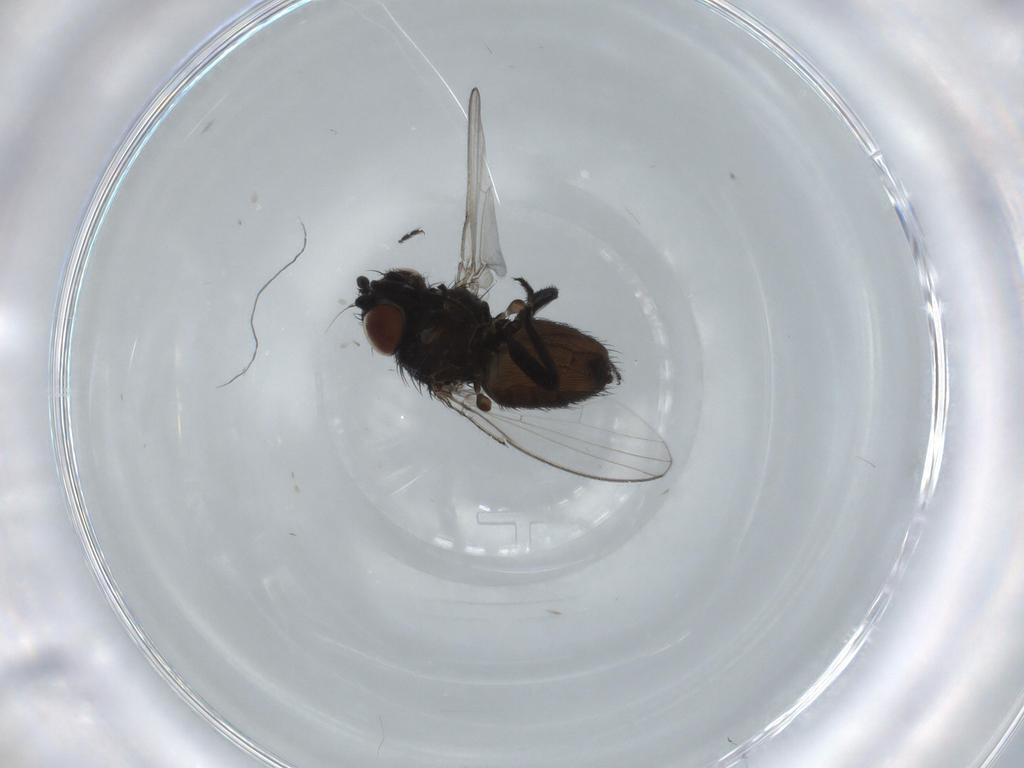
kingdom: Animalia
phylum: Arthropoda
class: Insecta
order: Diptera
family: Milichiidae
